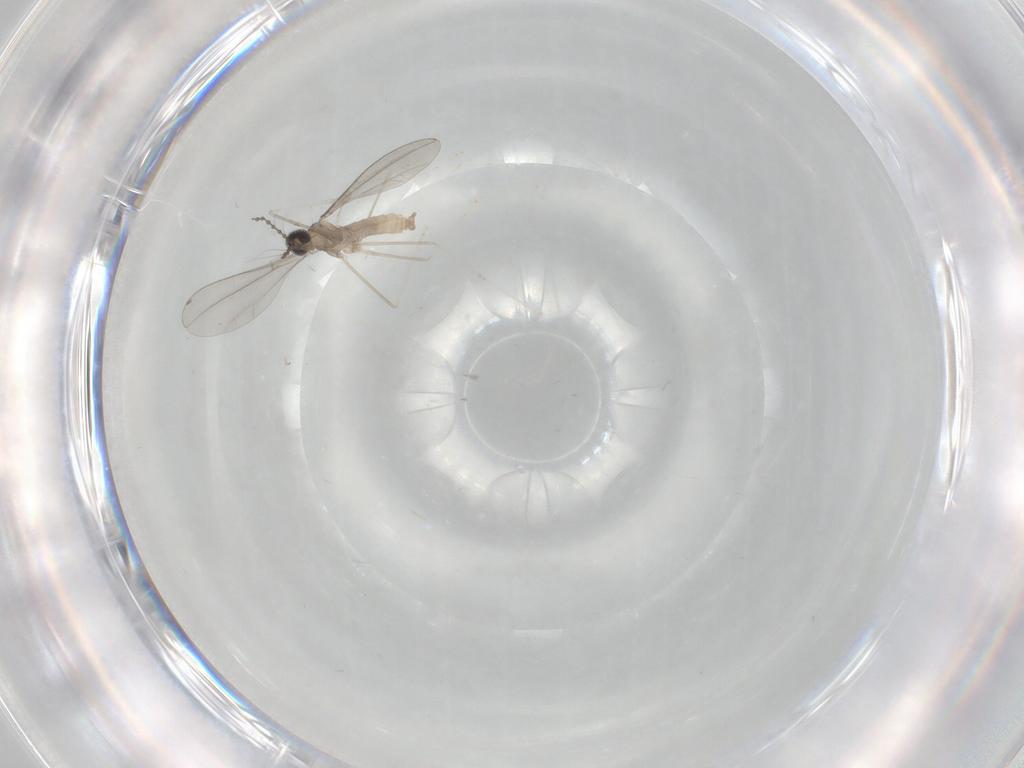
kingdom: Animalia
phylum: Arthropoda
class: Insecta
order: Diptera
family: Cecidomyiidae
